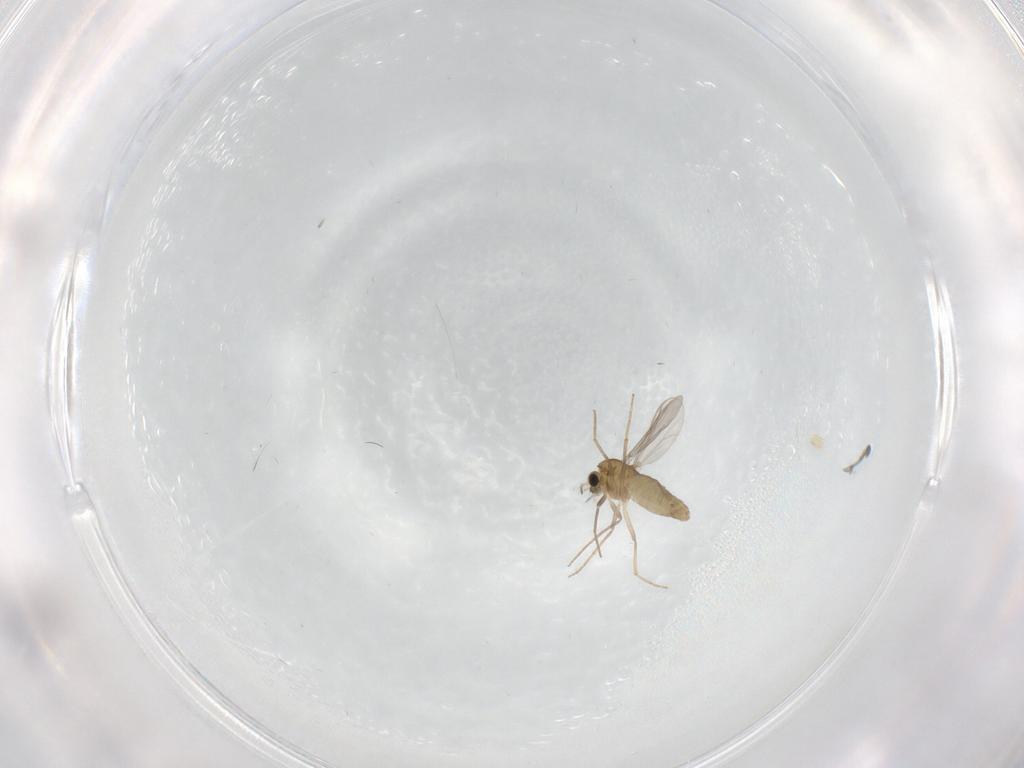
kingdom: Animalia
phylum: Arthropoda
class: Insecta
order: Diptera
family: Chironomidae
